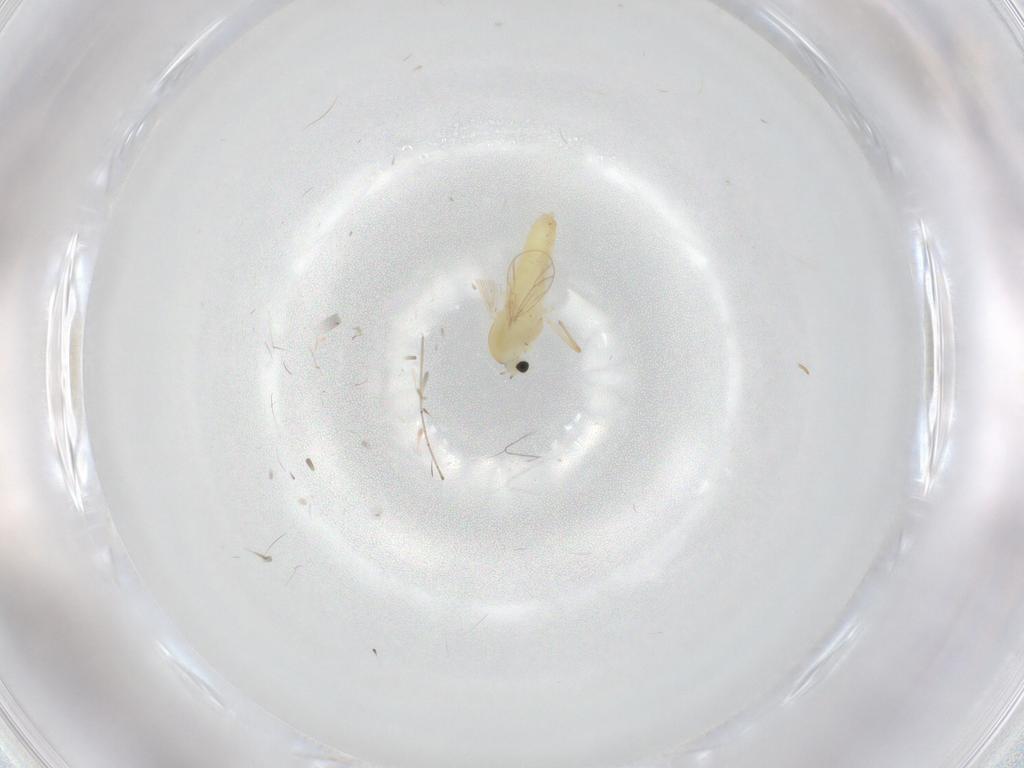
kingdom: Animalia
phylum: Arthropoda
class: Insecta
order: Diptera
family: Chironomidae
